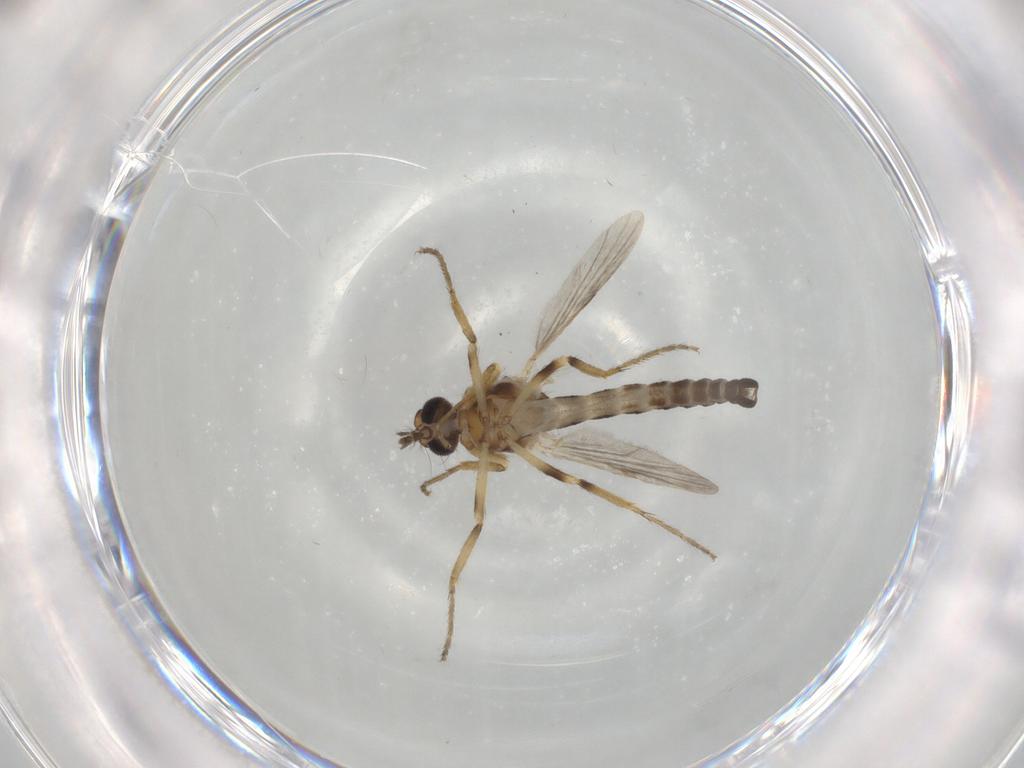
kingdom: Animalia
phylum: Arthropoda
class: Insecta
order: Diptera
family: Ceratopogonidae
